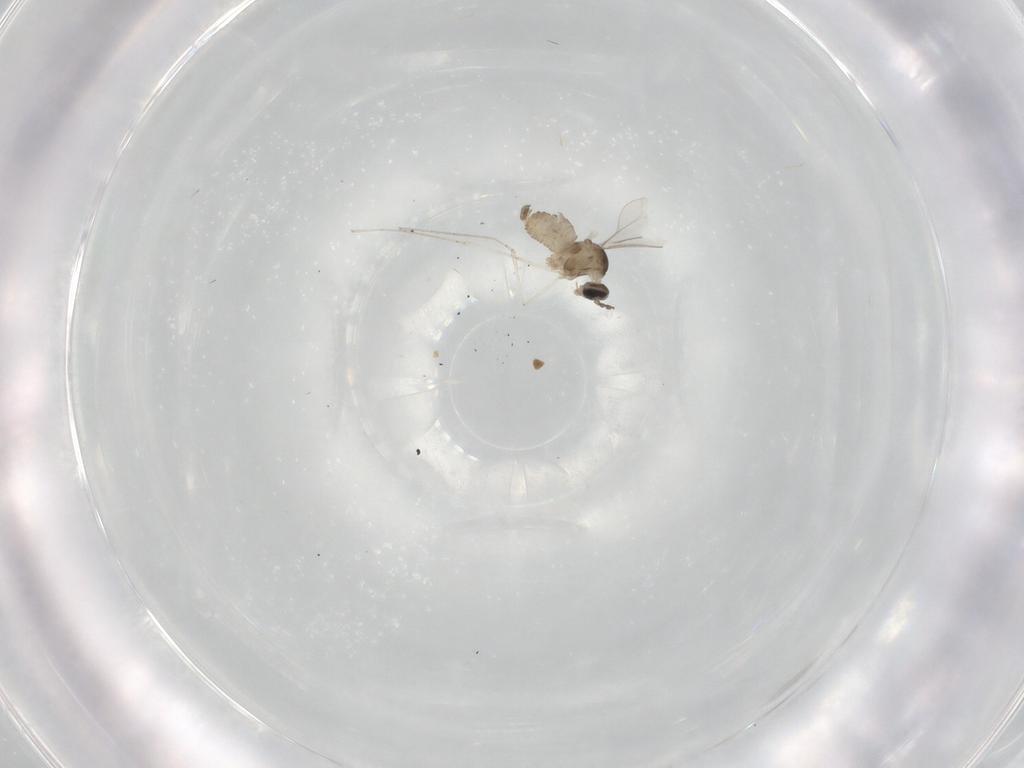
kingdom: Animalia
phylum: Arthropoda
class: Insecta
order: Diptera
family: Cecidomyiidae
